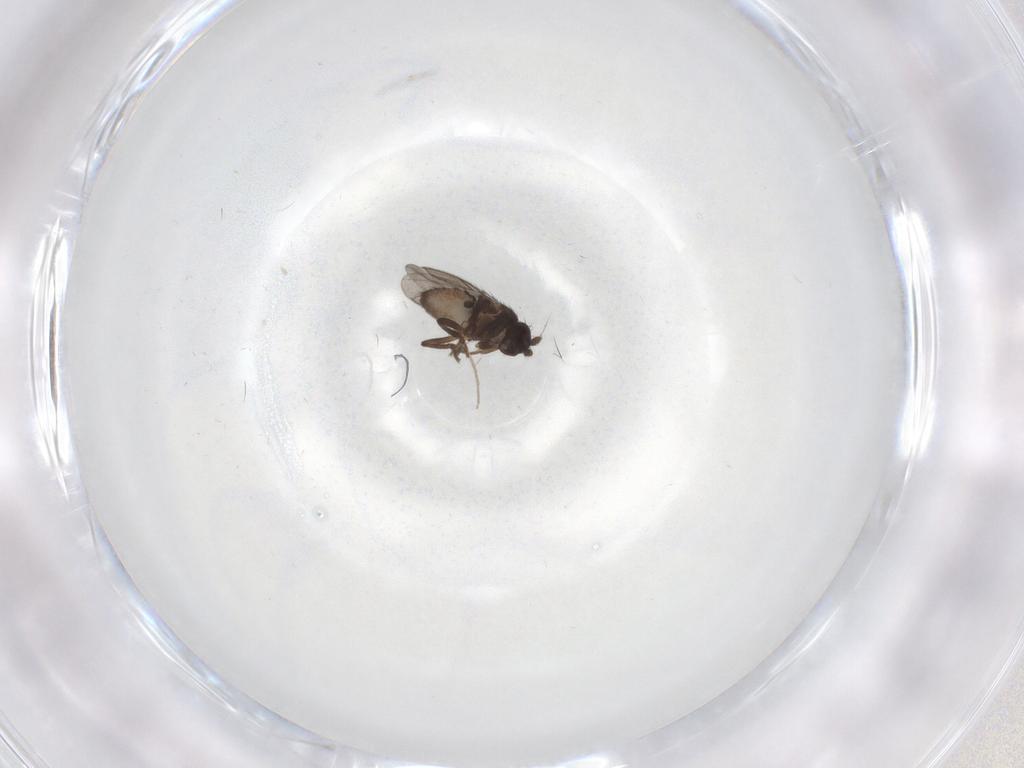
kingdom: Animalia
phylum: Arthropoda
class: Insecta
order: Diptera
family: Sphaeroceridae
